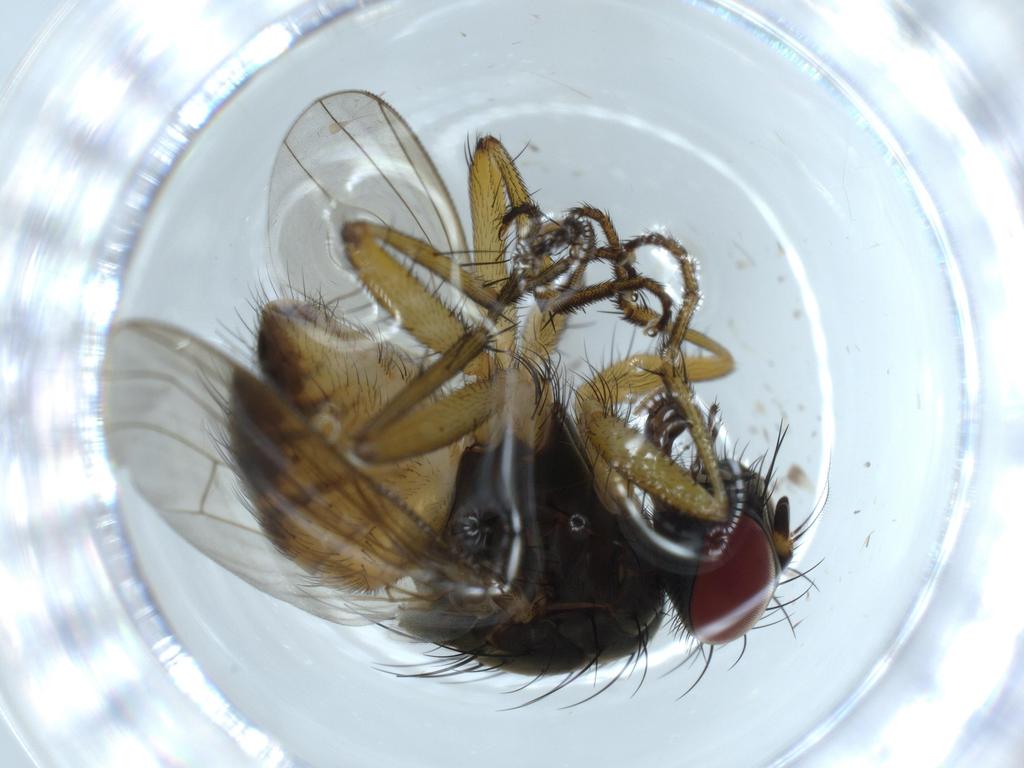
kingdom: Animalia
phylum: Arthropoda
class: Insecta
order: Diptera
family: Muscidae
